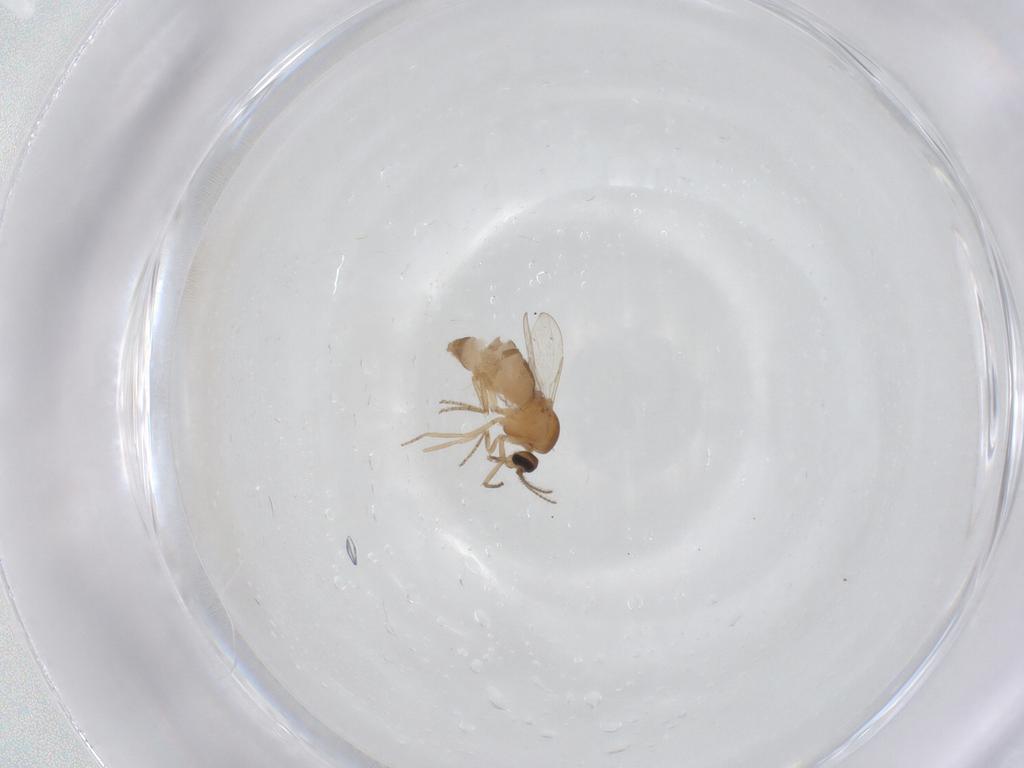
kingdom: Animalia
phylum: Arthropoda
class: Insecta
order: Diptera
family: Ceratopogonidae
